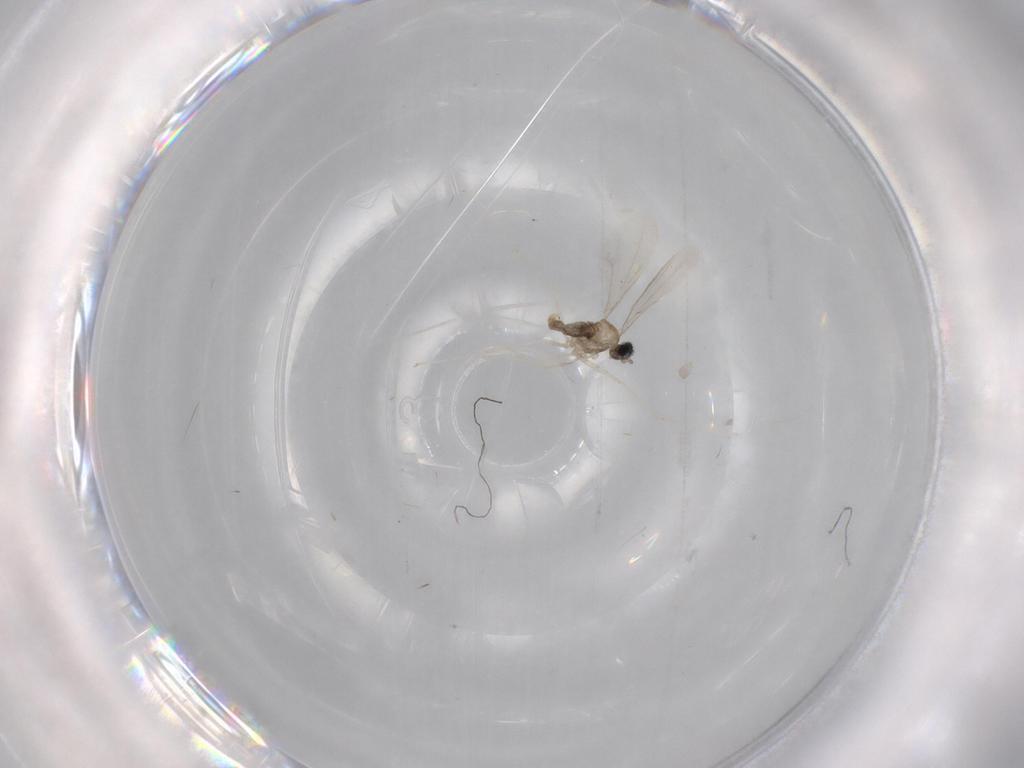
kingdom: Animalia
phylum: Arthropoda
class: Insecta
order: Diptera
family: Cecidomyiidae
